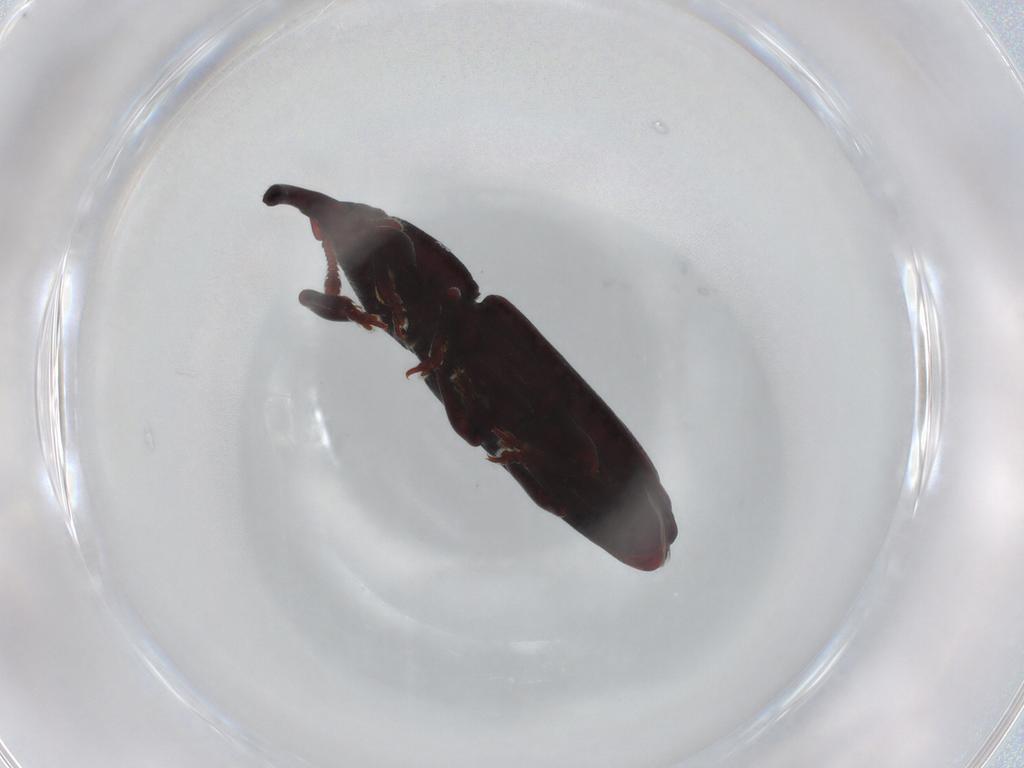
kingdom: Animalia
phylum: Arthropoda
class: Insecta
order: Coleoptera
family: Curculionidae
